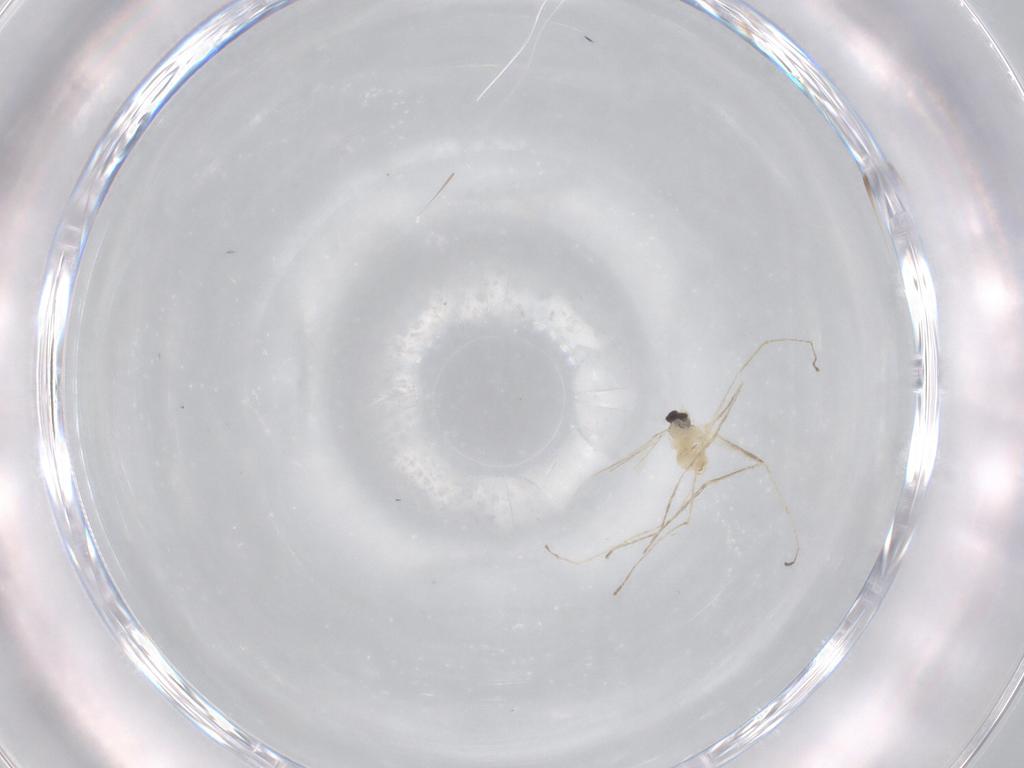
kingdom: Animalia
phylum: Arthropoda
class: Insecta
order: Diptera
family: Cecidomyiidae
